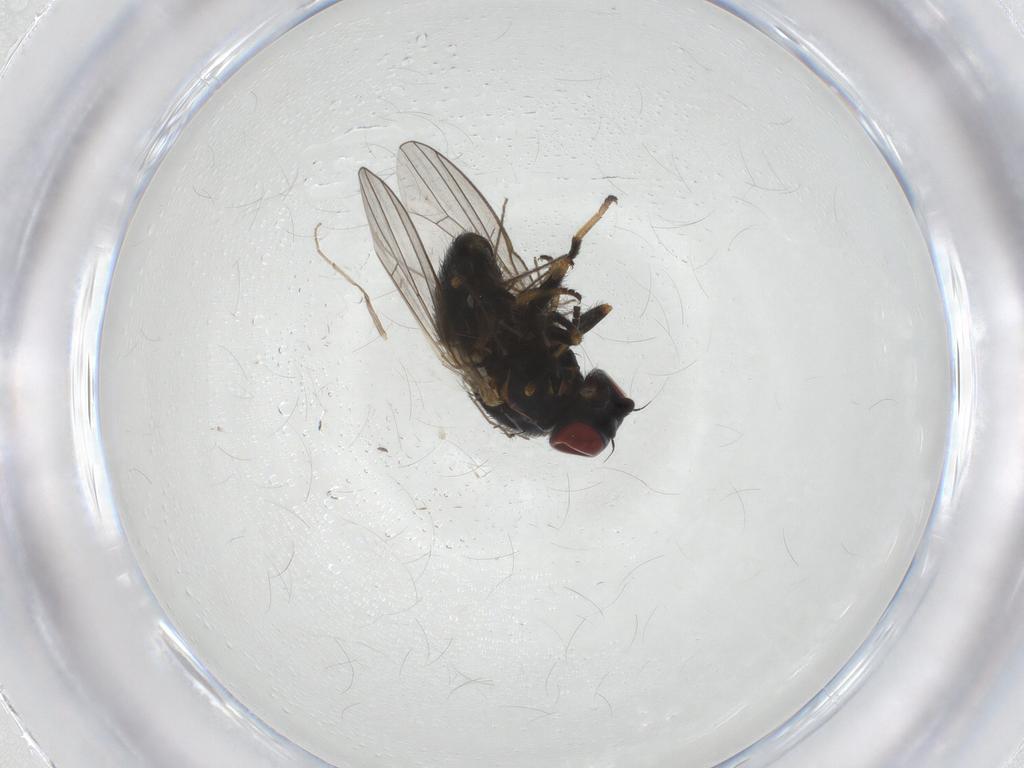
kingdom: Animalia
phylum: Arthropoda
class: Insecta
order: Diptera
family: Chamaemyiidae
